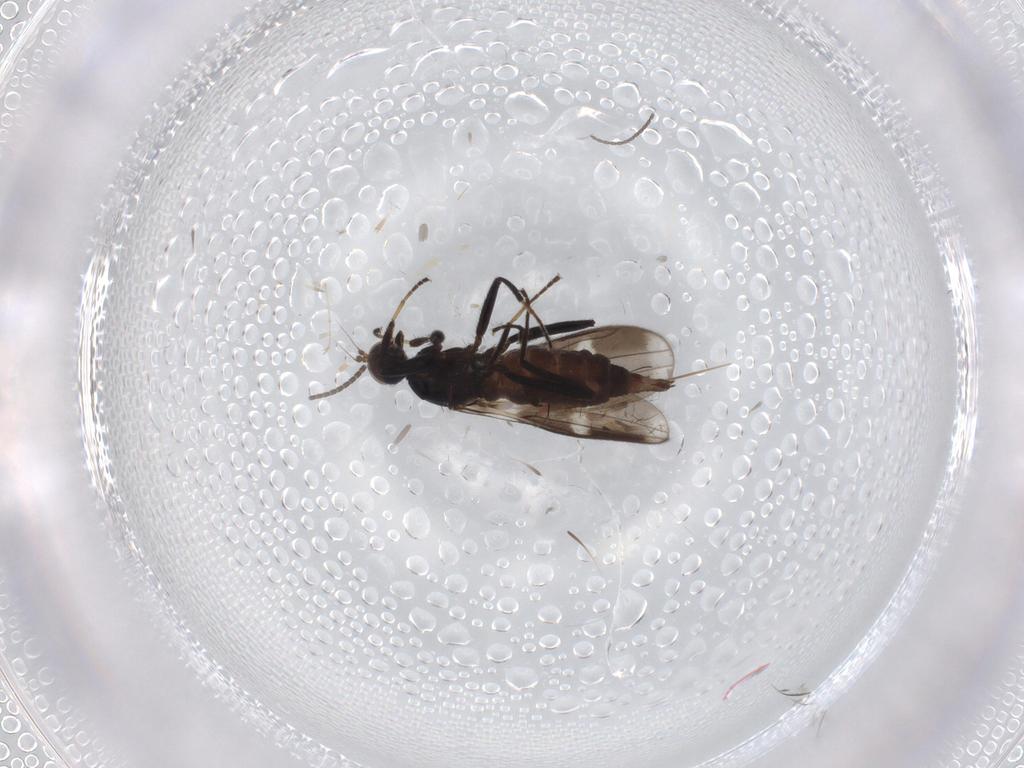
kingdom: Animalia
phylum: Arthropoda
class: Insecta
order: Diptera
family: Hybotidae
